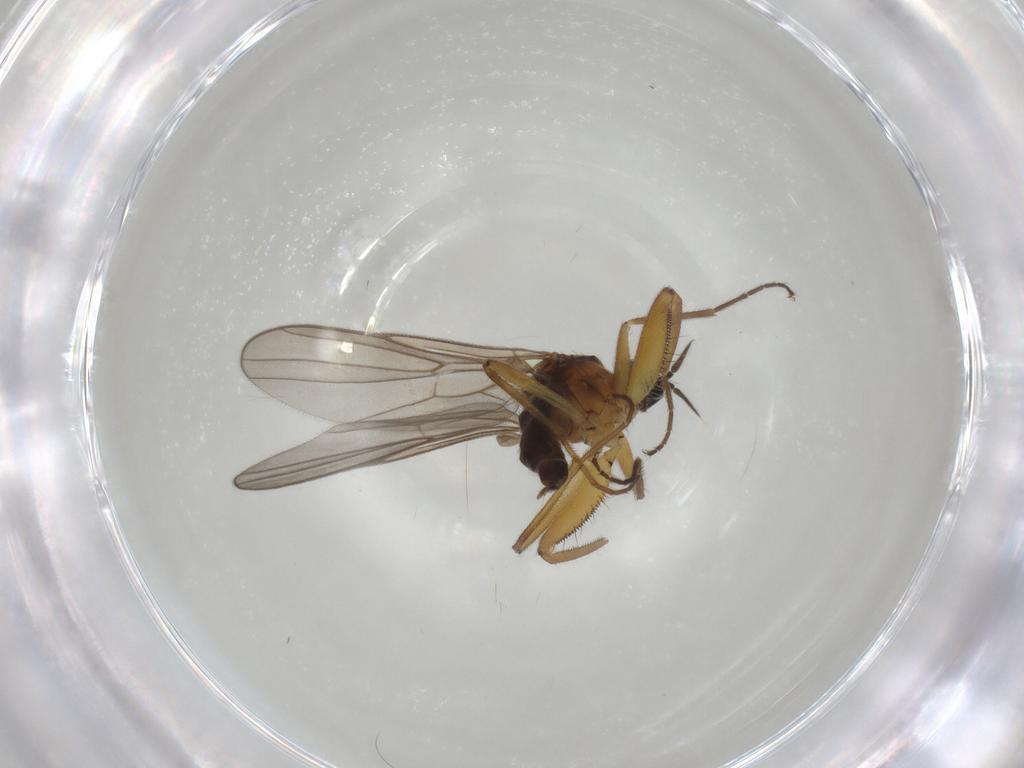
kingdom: Animalia
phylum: Arthropoda
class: Insecta
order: Diptera
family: Hybotidae
